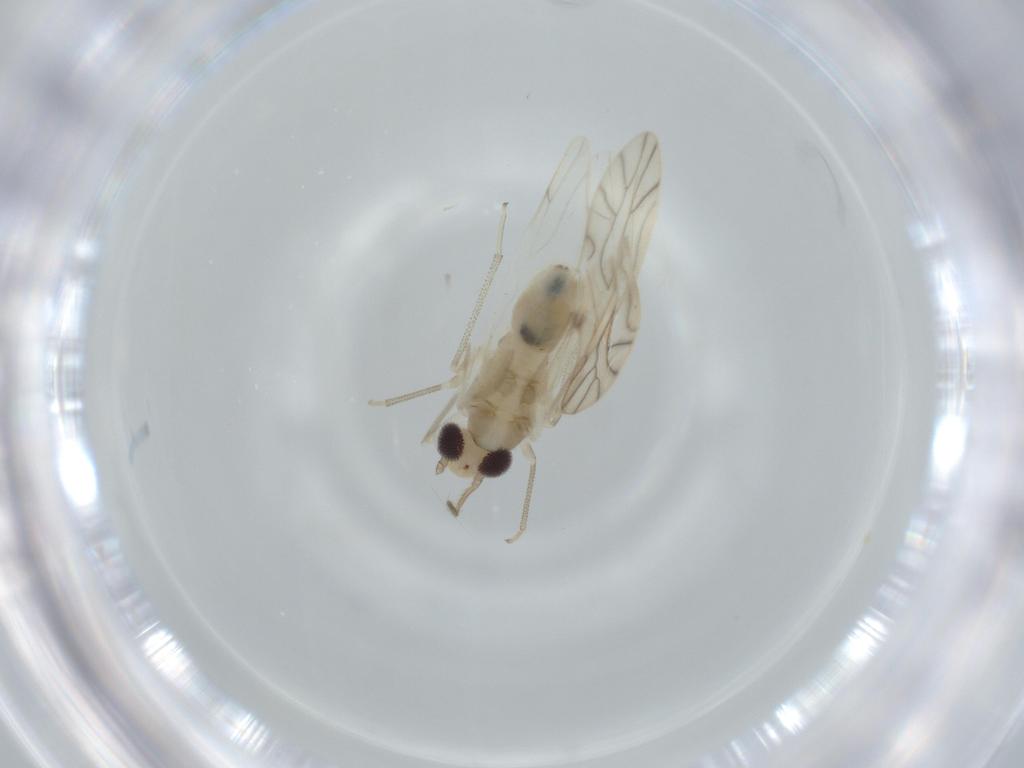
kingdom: Animalia
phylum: Arthropoda
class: Insecta
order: Psocodea
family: Caeciliusidae
